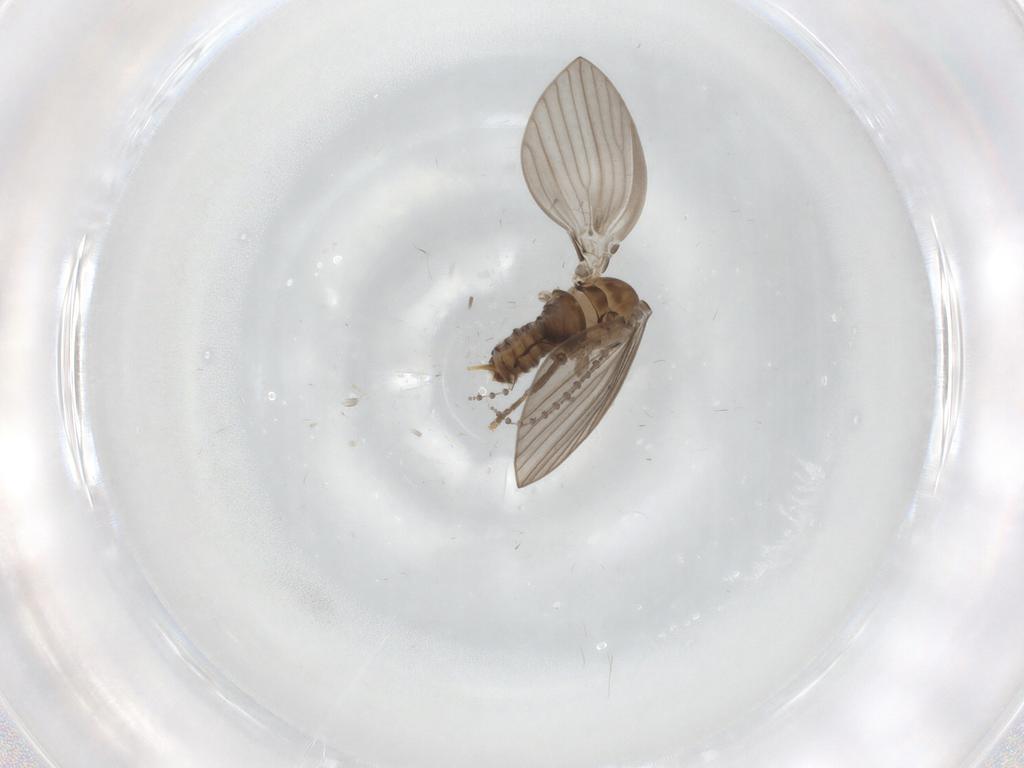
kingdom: Animalia
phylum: Arthropoda
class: Insecta
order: Diptera
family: Psychodidae
